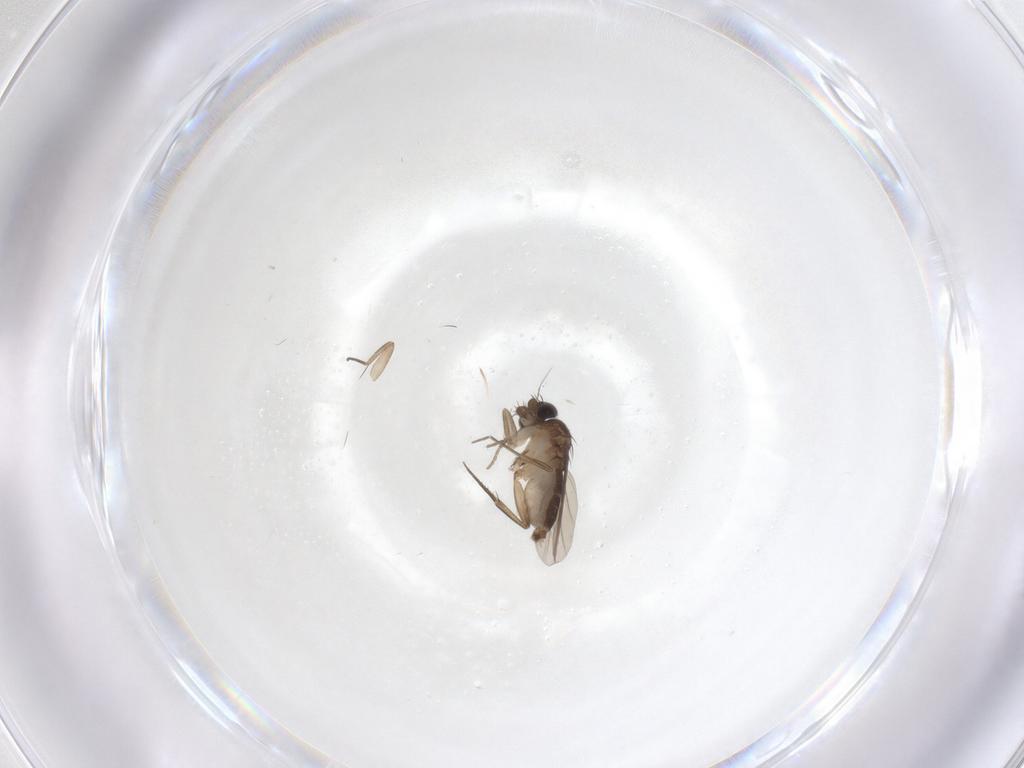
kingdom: Animalia
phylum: Arthropoda
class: Insecta
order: Diptera
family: Phoridae
